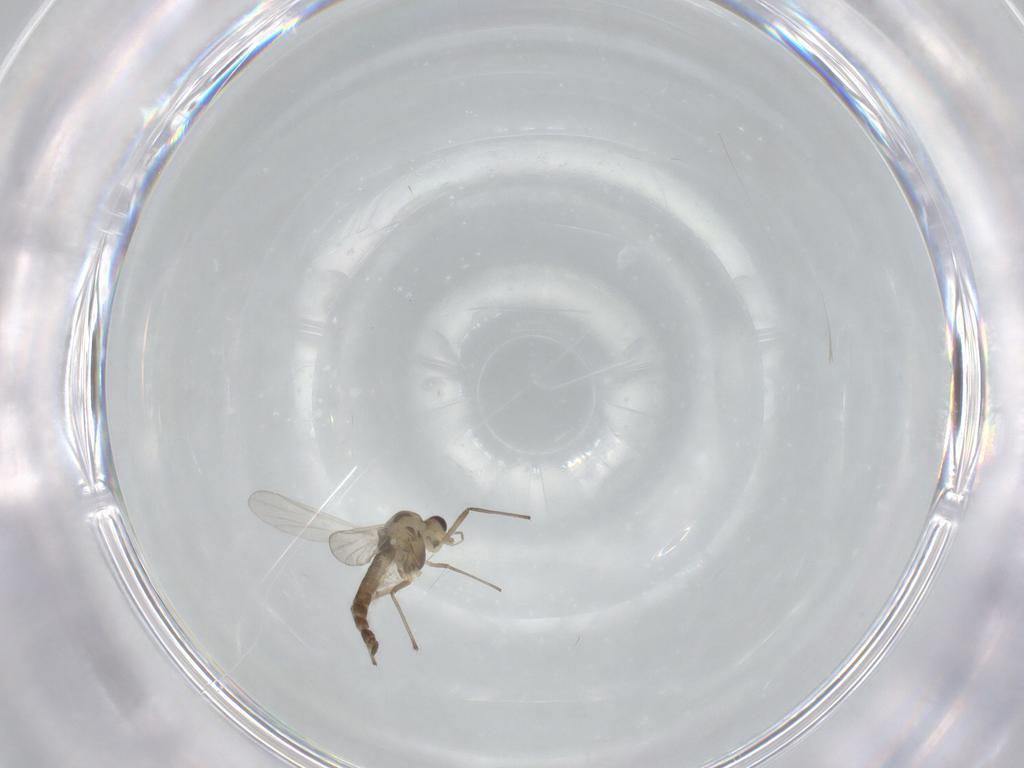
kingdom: Animalia
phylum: Arthropoda
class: Insecta
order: Diptera
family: Chironomidae
